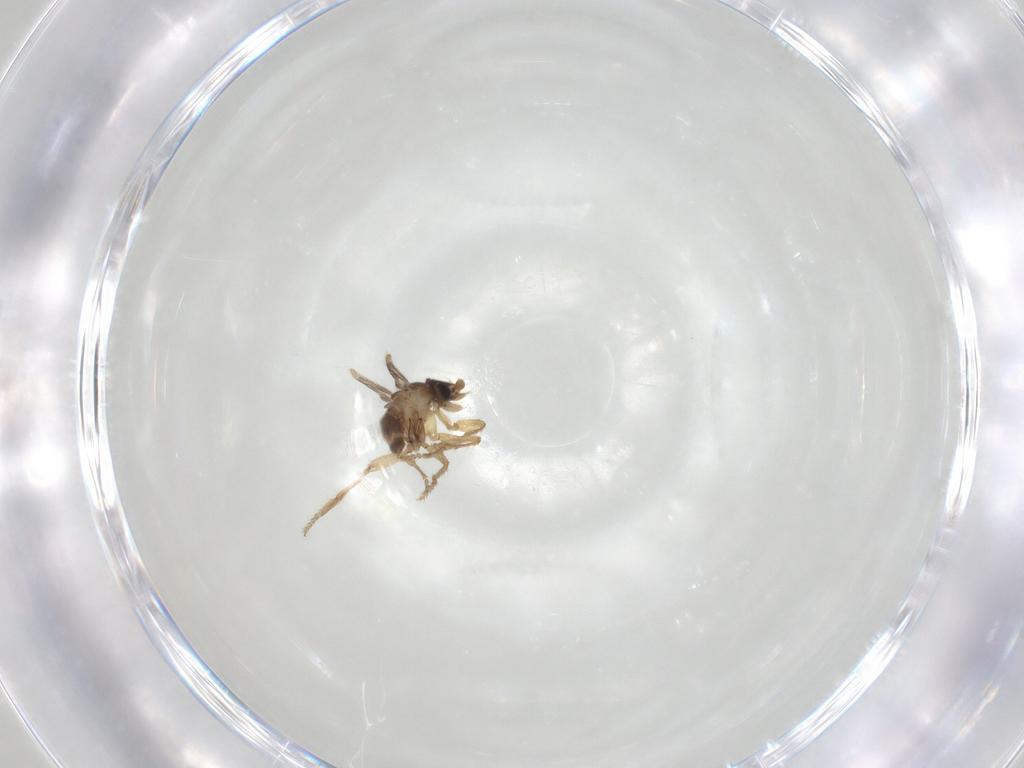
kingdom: Animalia
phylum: Arthropoda
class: Insecta
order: Diptera
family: Phoridae
